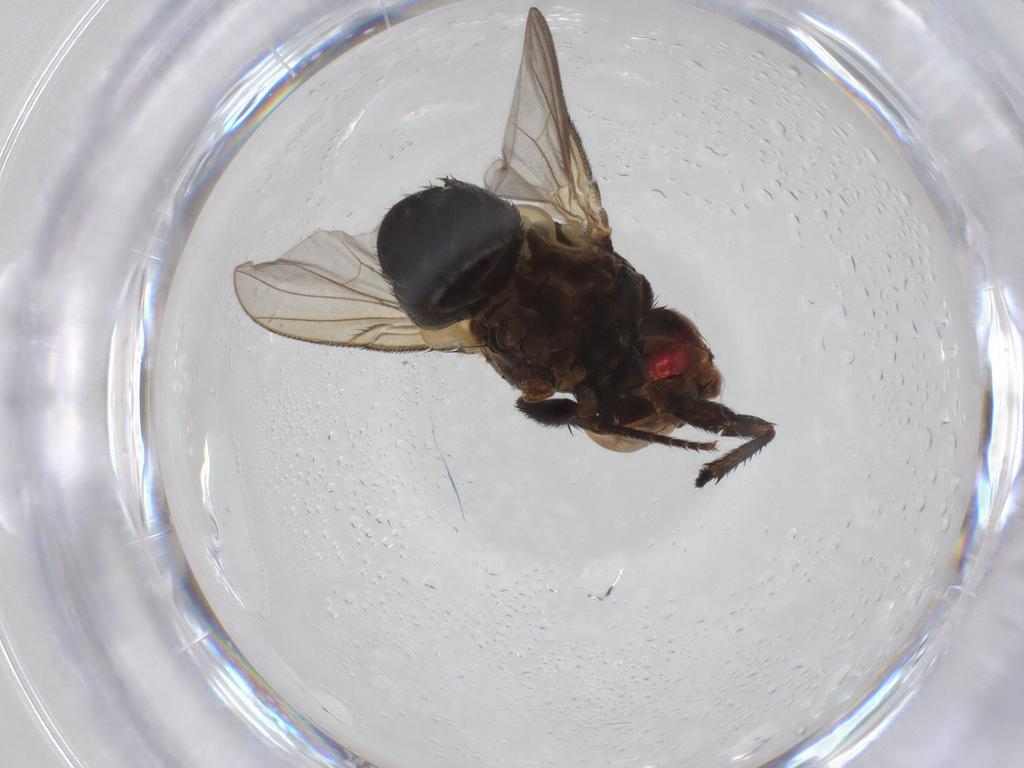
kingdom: Animalia
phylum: Arthropoda
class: Insecta
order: Diptera
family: Tachinidae
